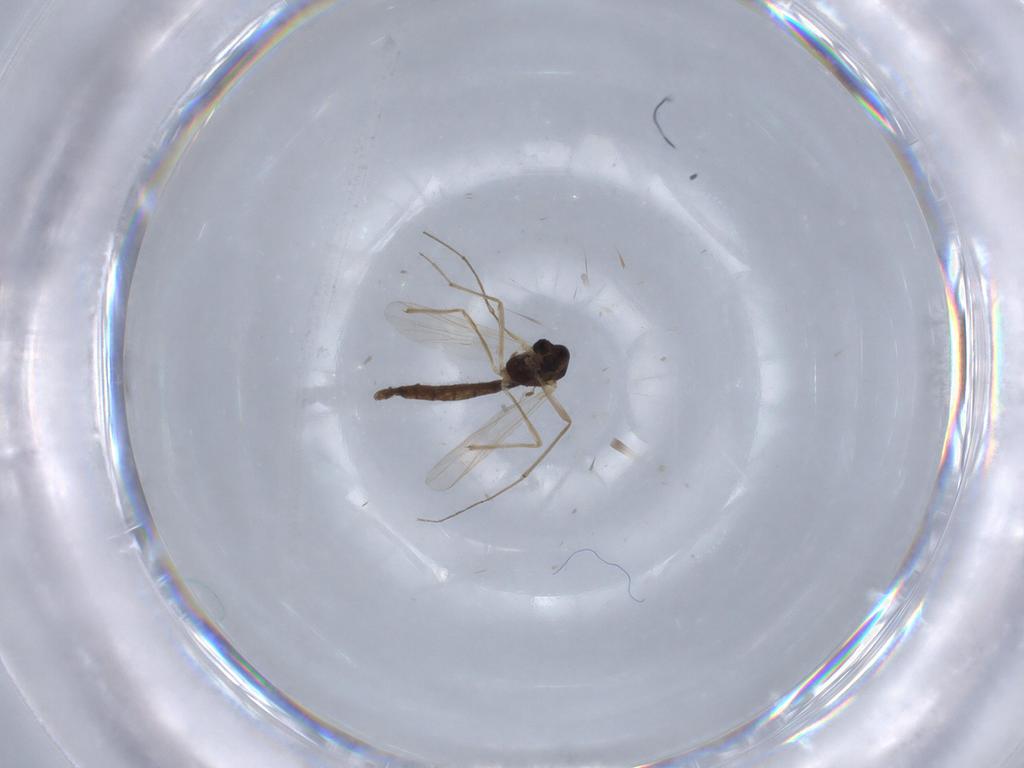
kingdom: Animalia
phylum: Arthropoda
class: Insecta
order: Diptera
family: Chironomidae
